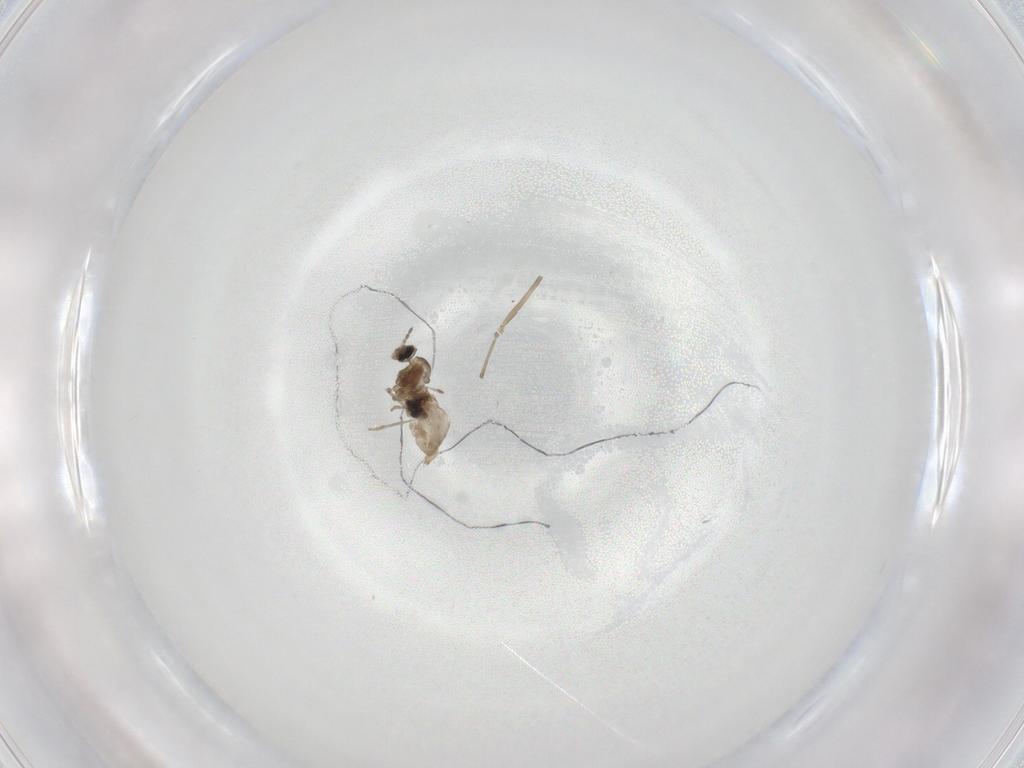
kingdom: Animalia
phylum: Arthropoda
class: Insecta
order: Diptera
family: Cecidomyiidae
